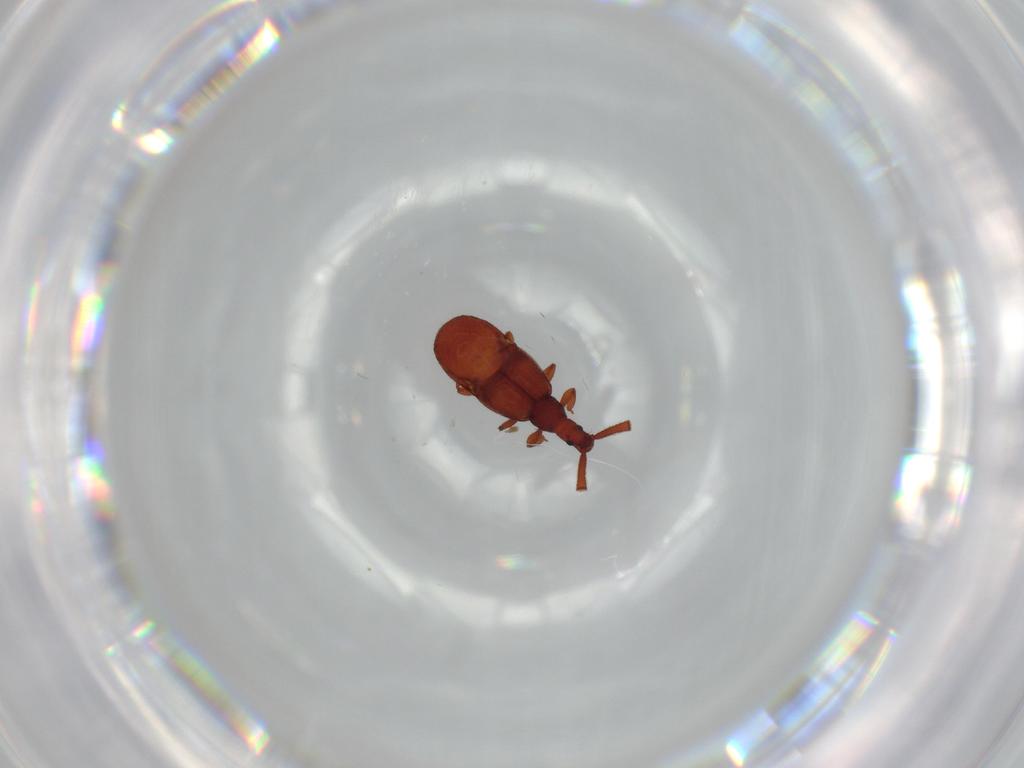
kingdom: Animalia
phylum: Arthropoda
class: Insecta
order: Coleoptera
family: Staphylinidae
